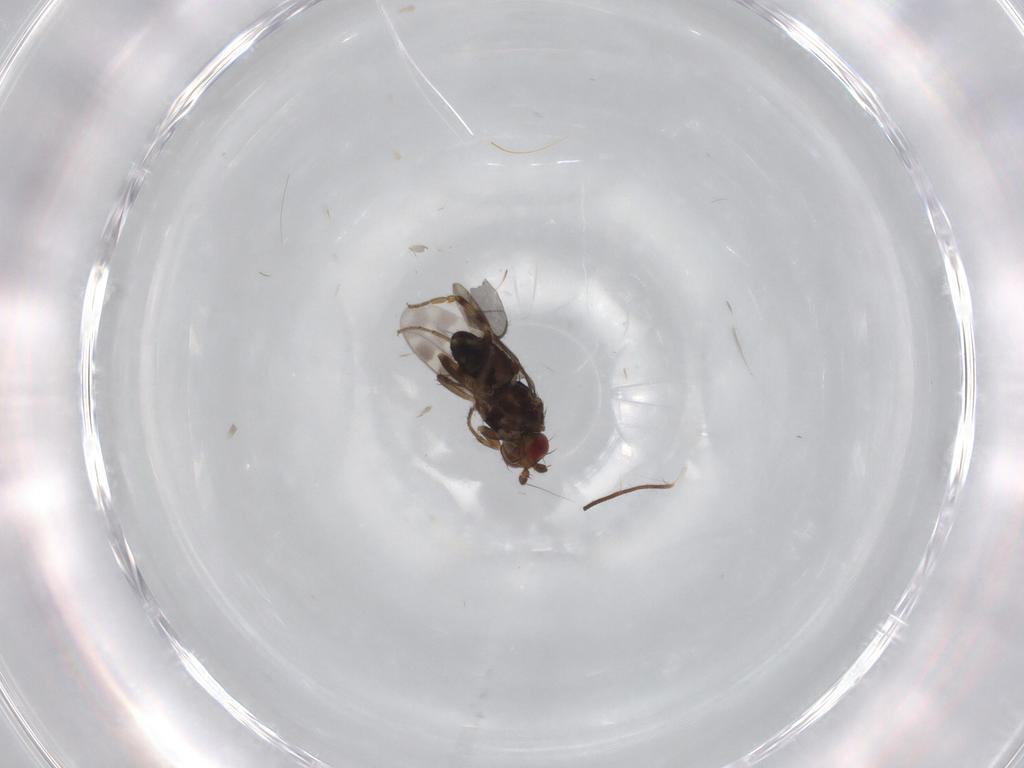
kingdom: Animalia
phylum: Arthropoda
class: Insecta
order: Diptera
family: Sphaeroceridae
